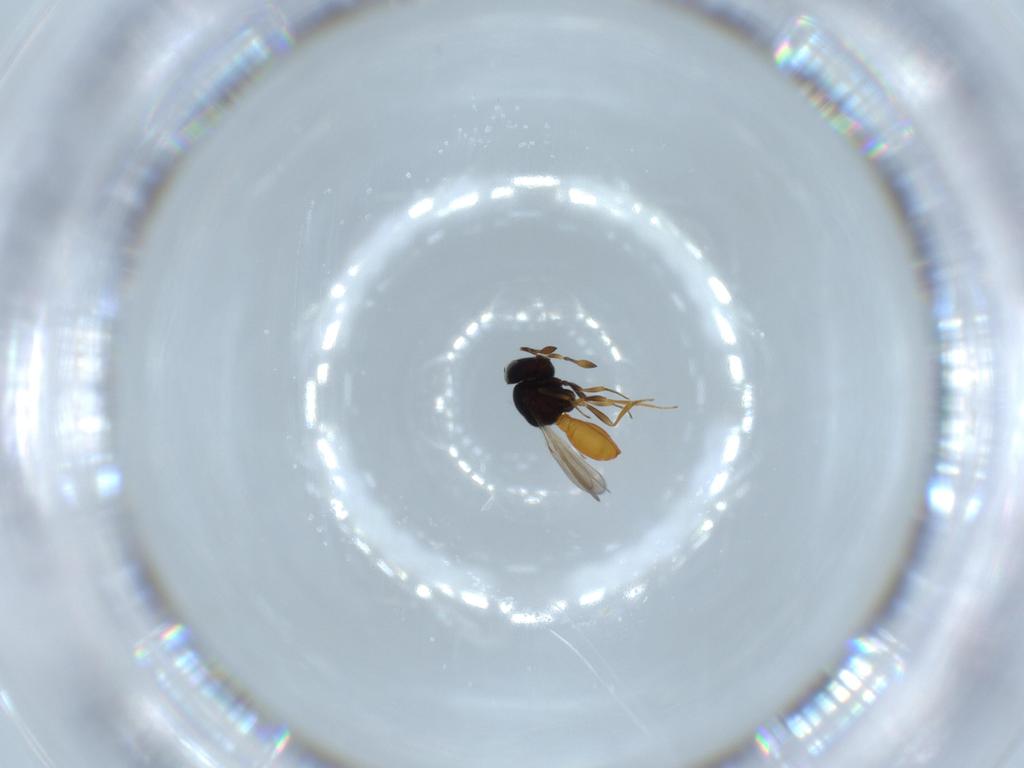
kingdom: Animalia
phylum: Arthropoda
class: Insecta
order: Hymenoptera
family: Scelionidae
